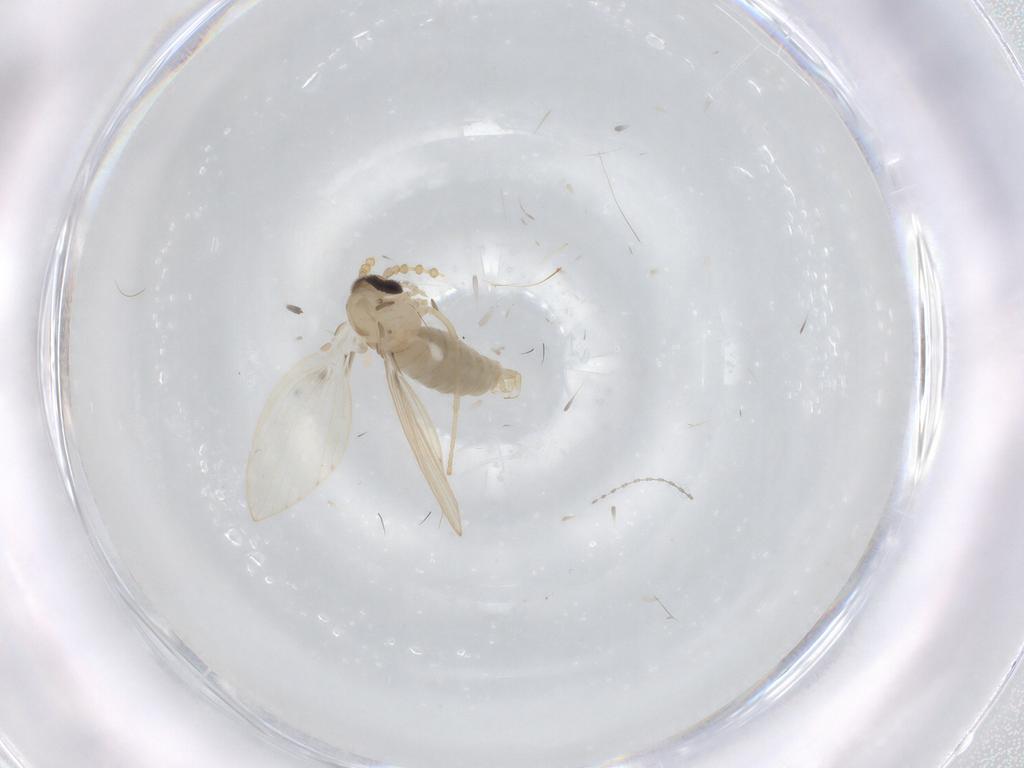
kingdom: Animalia
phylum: Arthropoda
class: Insecta
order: Diptera
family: Psychodidae
